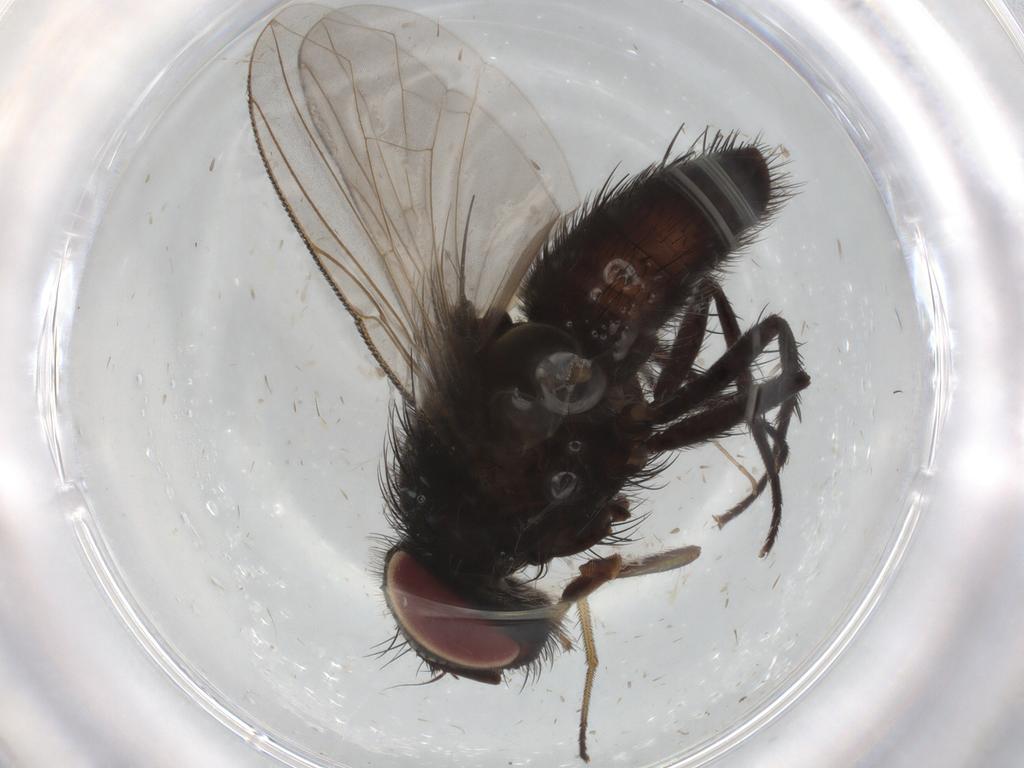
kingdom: Animalia
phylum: Arthropoda
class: Insecta
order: Diptera
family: Tachinidae
